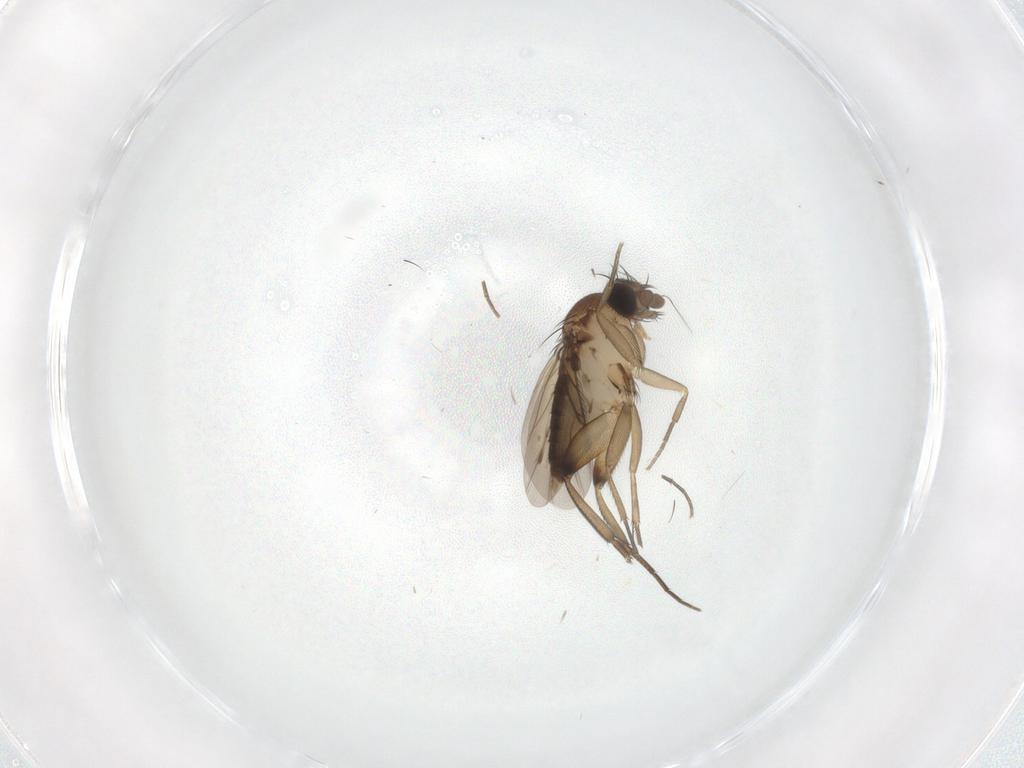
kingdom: Animalia
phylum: Arthropoda
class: Insecta
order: Diptera
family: Phoridae
